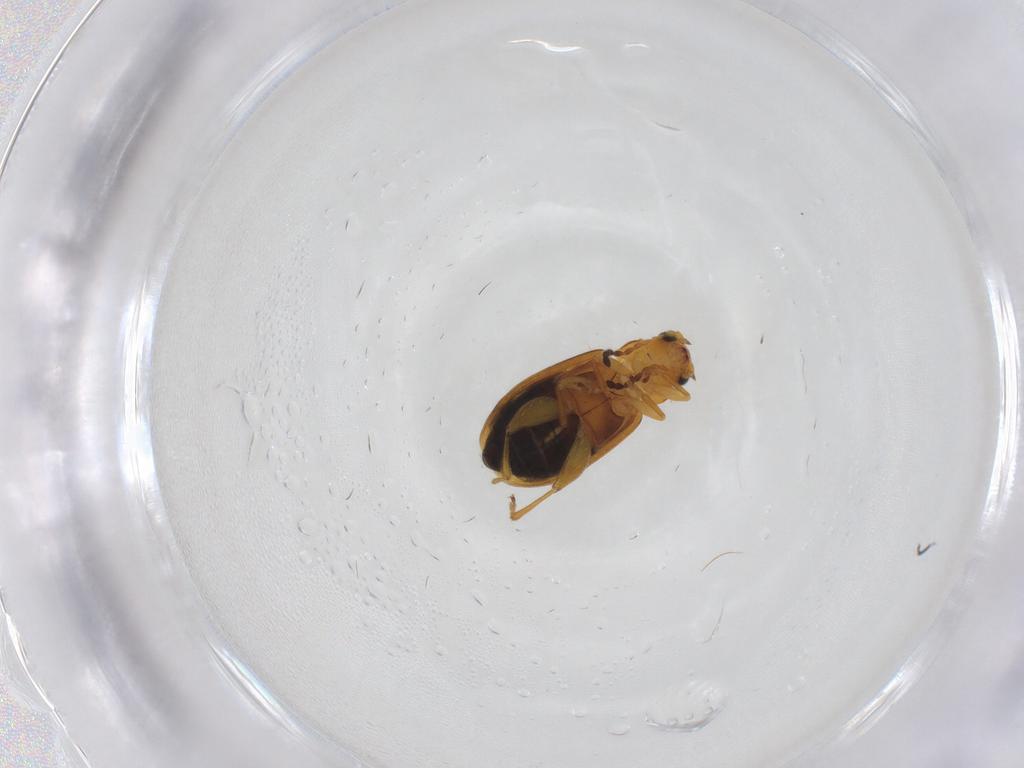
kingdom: Animalia
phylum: Arthropoda
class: Insecta
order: Coleoptera
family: Chrysomelidae
